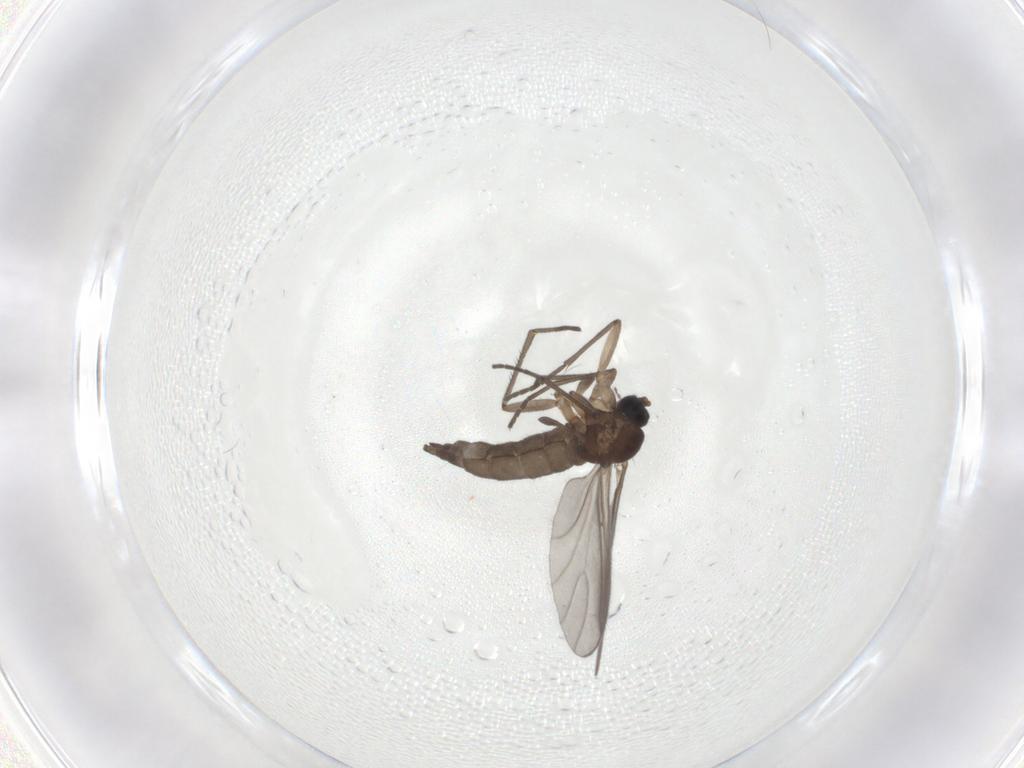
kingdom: Animalia
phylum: Arthropoda
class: Insecta
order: Diptera
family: Sciaridae
